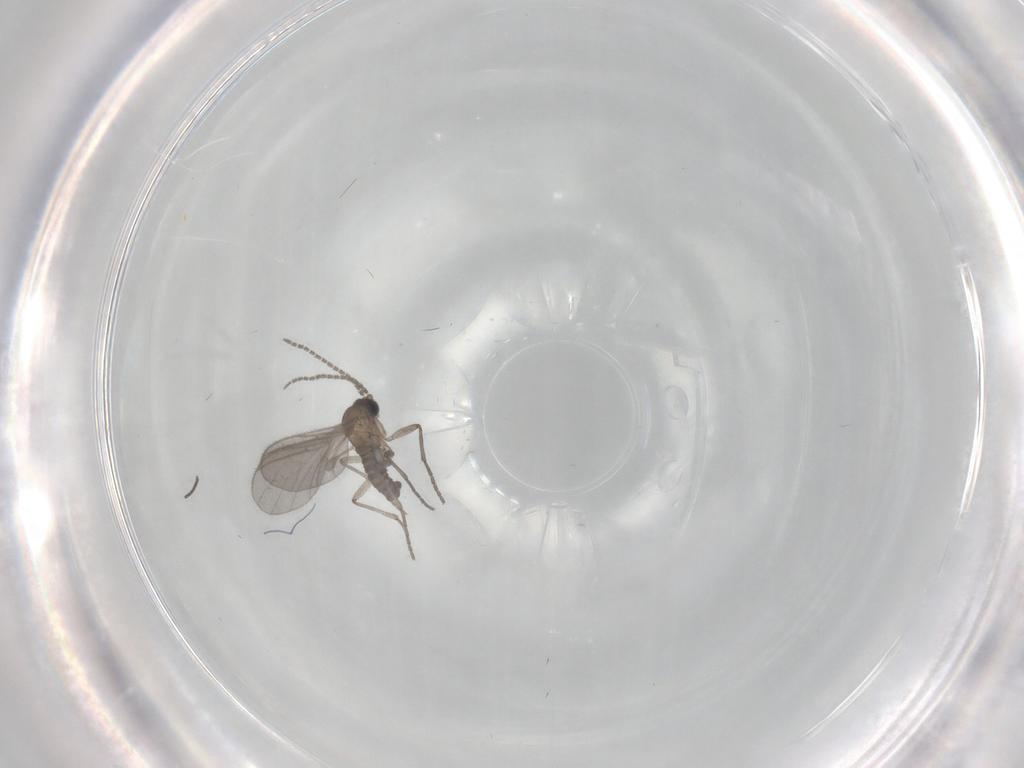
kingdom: Animalia
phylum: Arthropoda
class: Insecta
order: Diptera
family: Sciaridae
